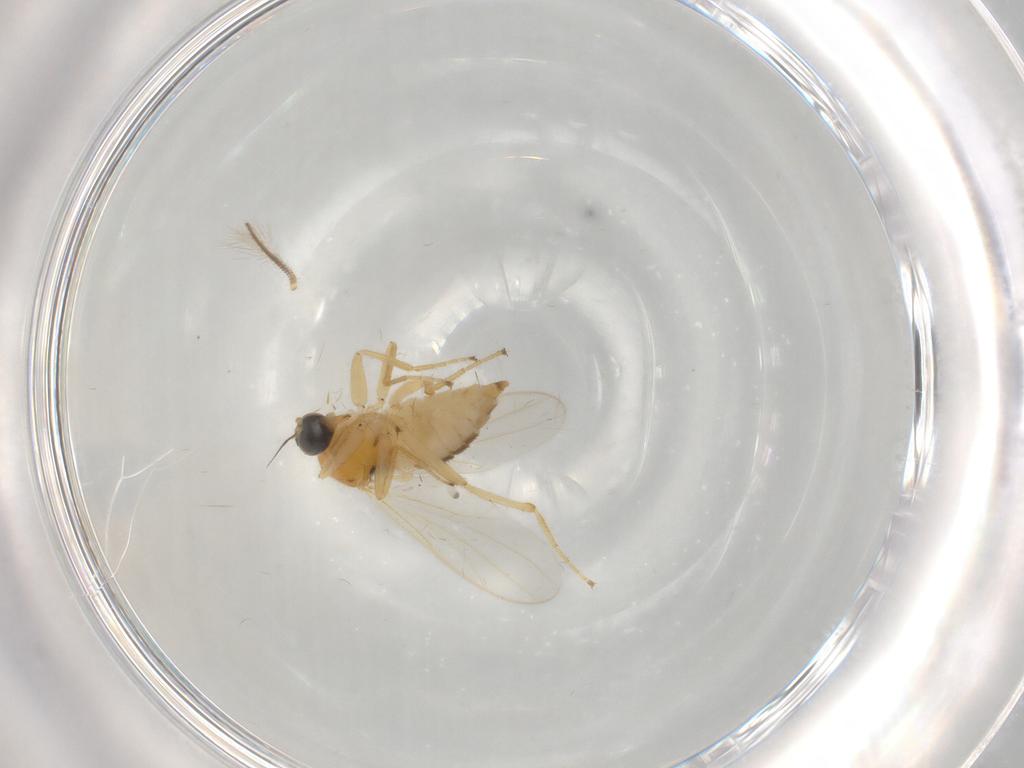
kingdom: Animalia
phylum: Arthropoda
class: Insecta
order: Diptera
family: Hybotidae
